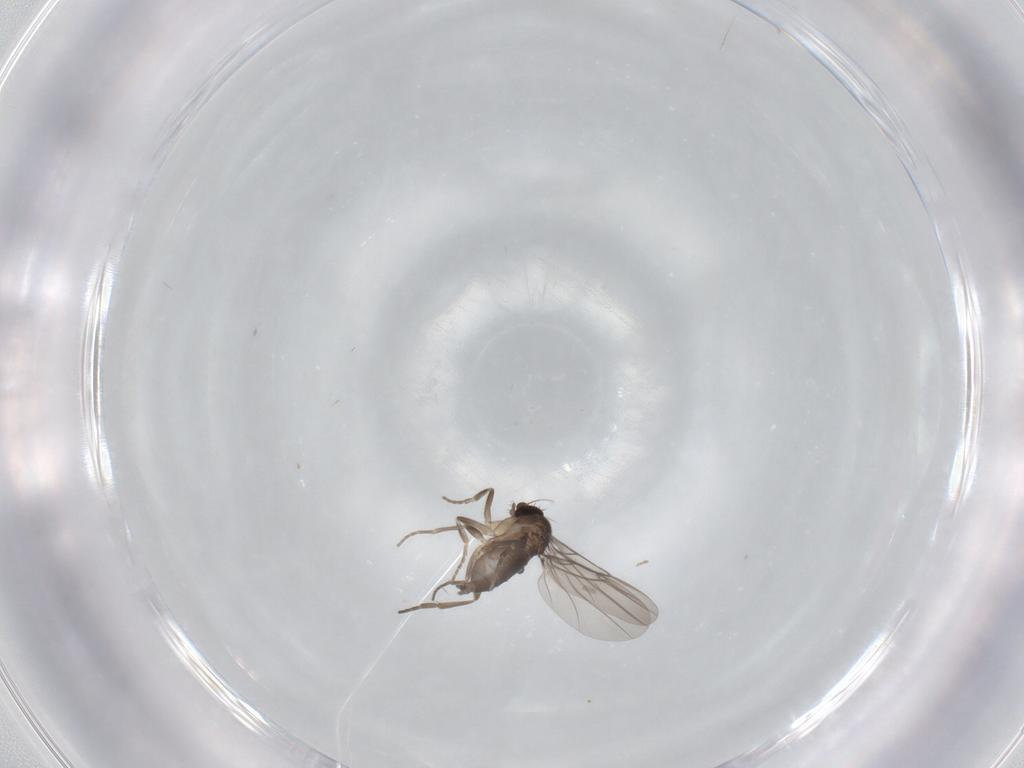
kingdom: Animalia
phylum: Arthropoda
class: Insecta
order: Diptera
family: Phoridae
